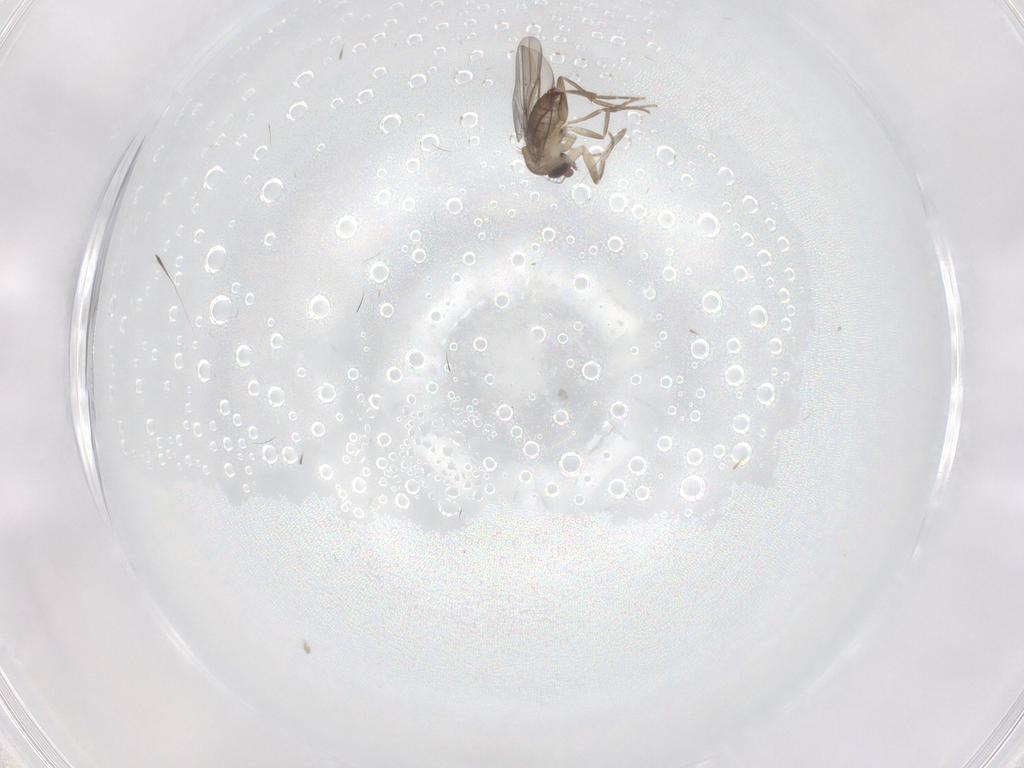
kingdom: Animalia
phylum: Arthropoda
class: Insecta
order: Diptera
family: Phoridae
